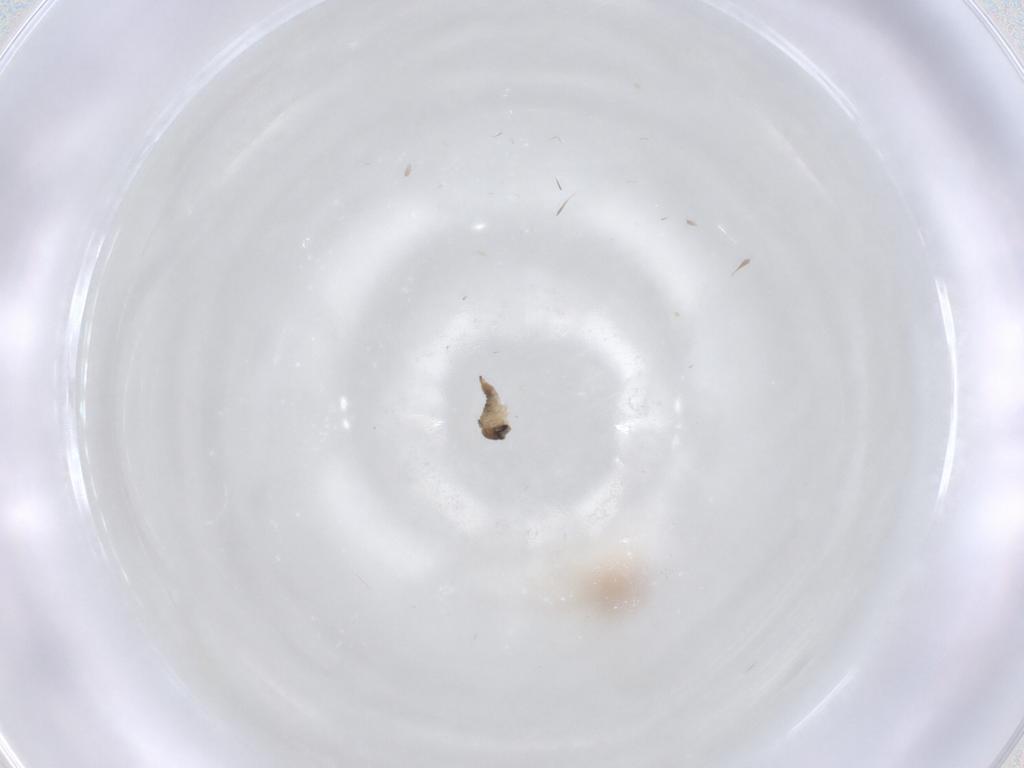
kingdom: Animalia
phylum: Arthropoda
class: Insecta
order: Diptera
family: Cecidomyiidae
